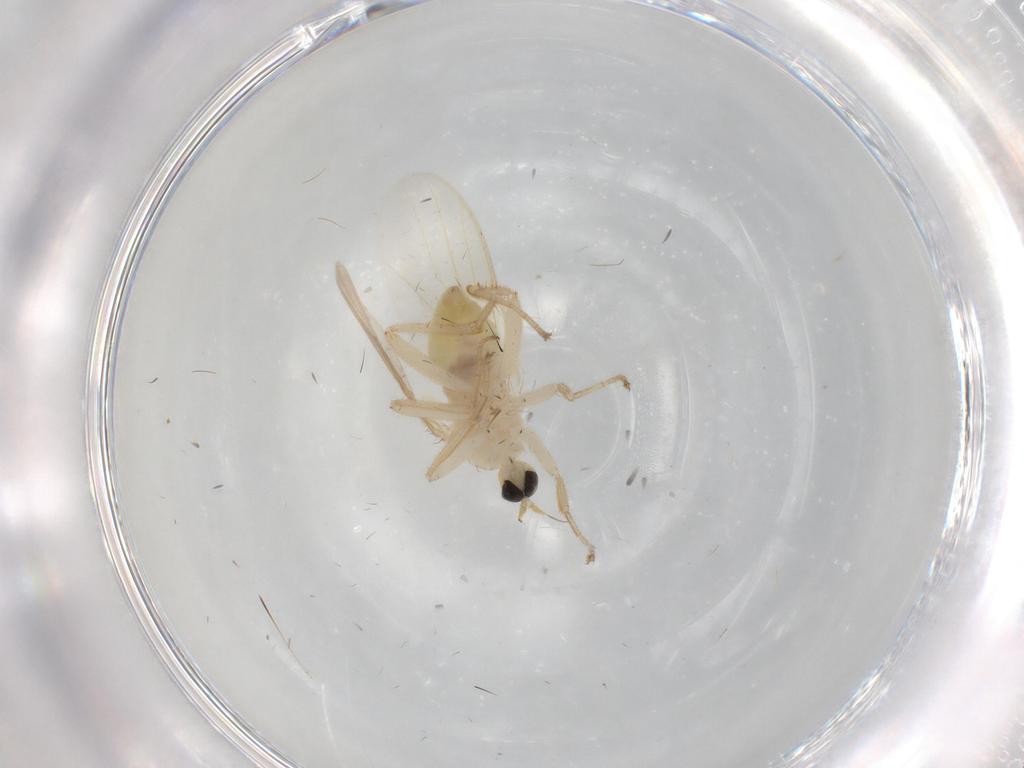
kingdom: Animalia
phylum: Arthropoda
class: Insecta
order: Diptera
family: Hybotidae
